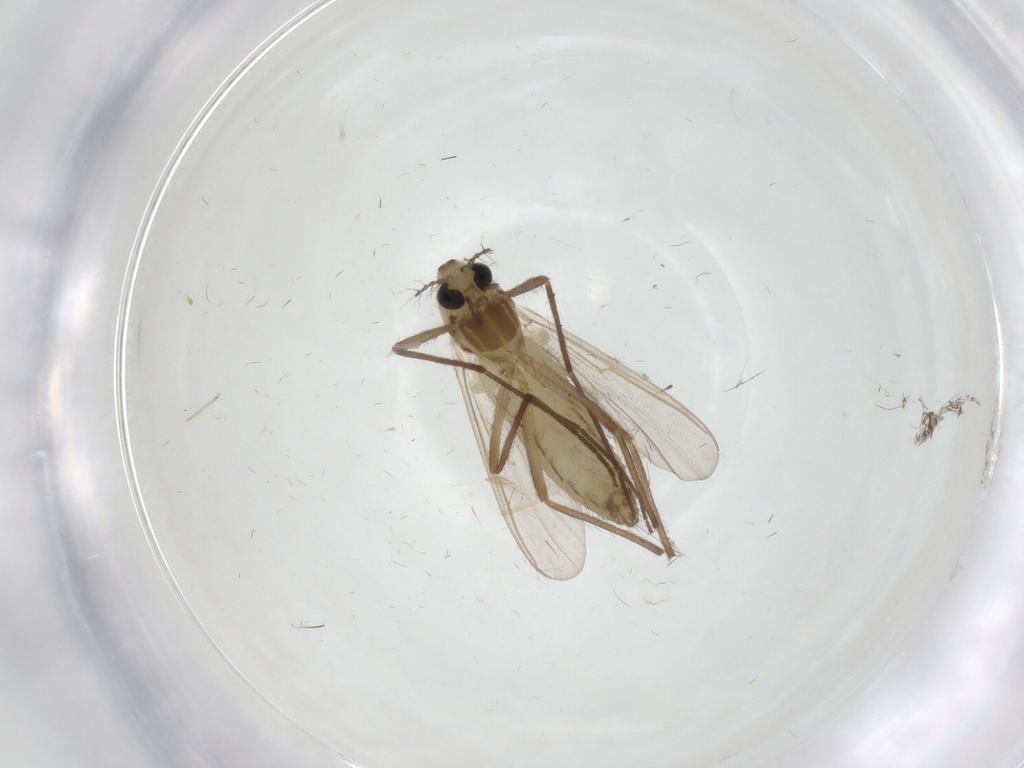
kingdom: Animalia
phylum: Arthropoda
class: Insecta
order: Diptera
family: Chironomidae
